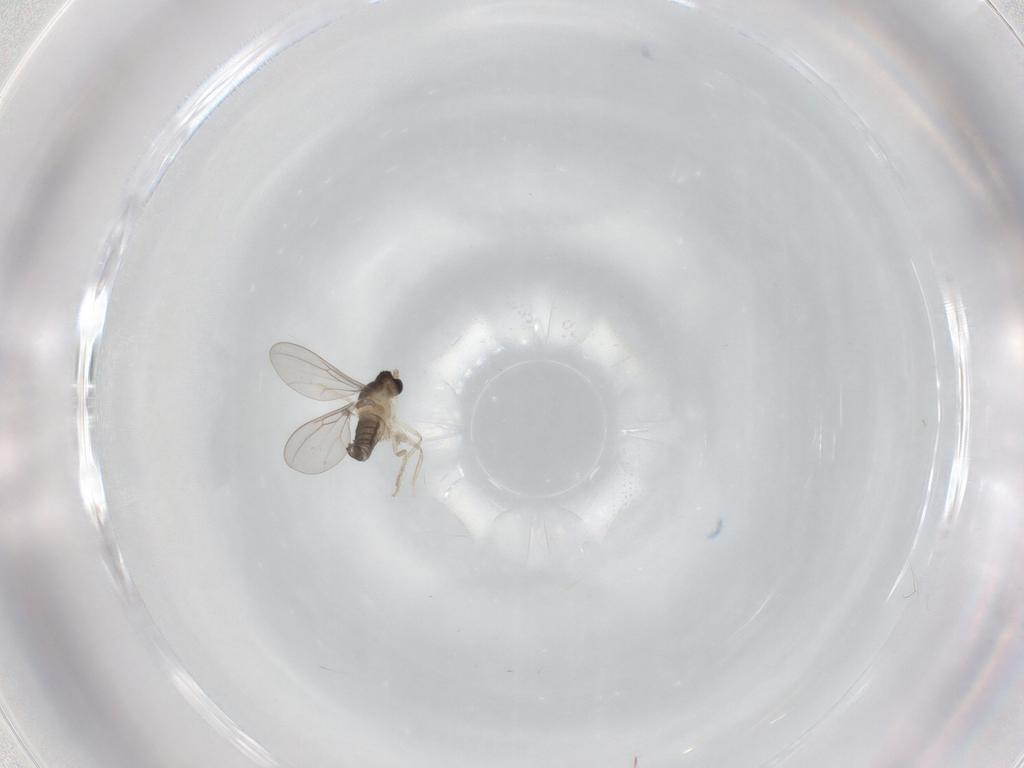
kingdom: Animalia
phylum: Arthropoda
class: Insecta
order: Diptera
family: Cecidomyiidae
